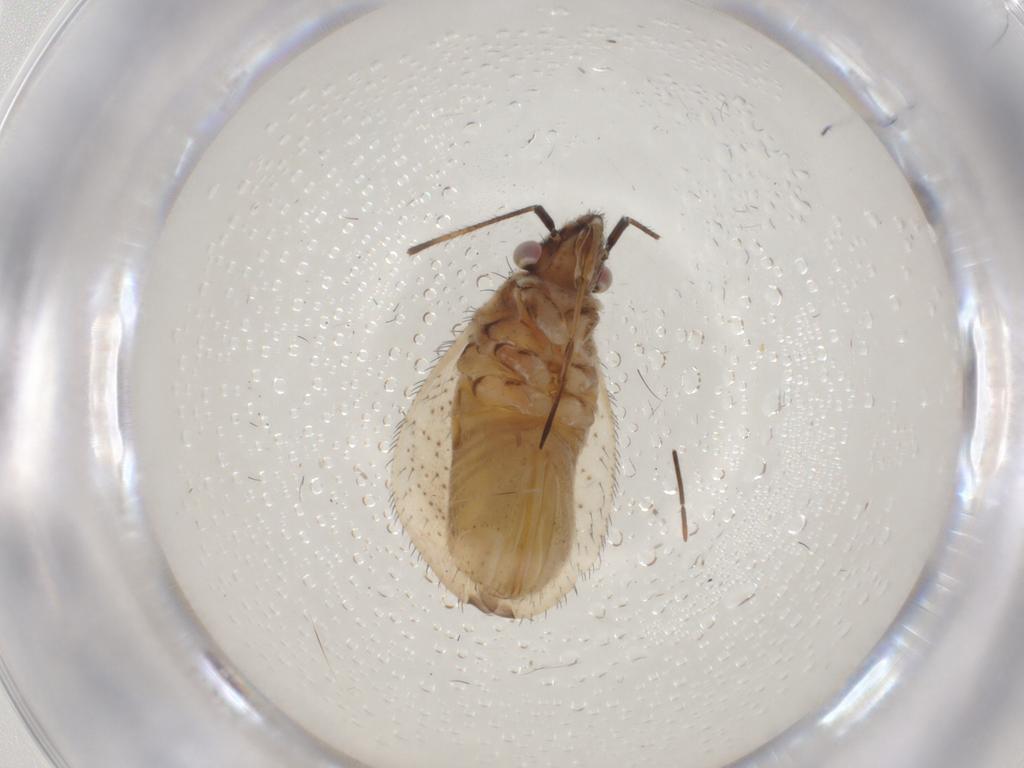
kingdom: Animalia
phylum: Arthropoda
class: Insecta
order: Hemiptera
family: Miridae
